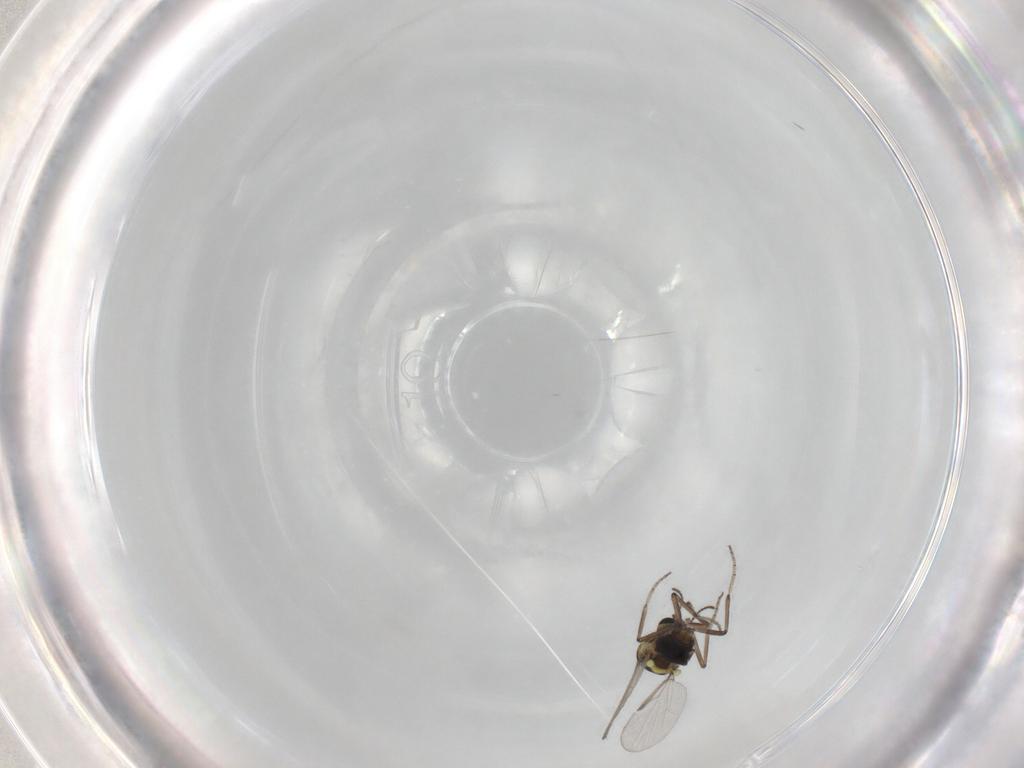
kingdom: Animalia
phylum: Arthropoda
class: Insecta
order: Diptera
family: Ceratopogonidae
